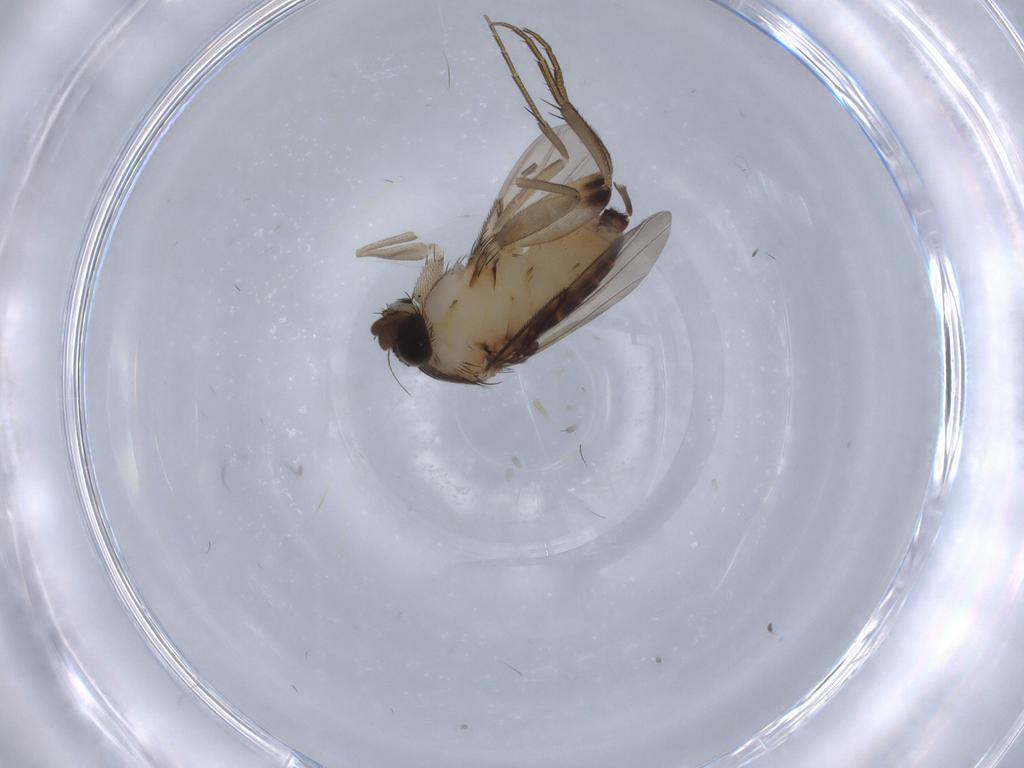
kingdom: Animalia
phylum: Arthropoda
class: Insecta
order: Diptera
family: Phoridae
